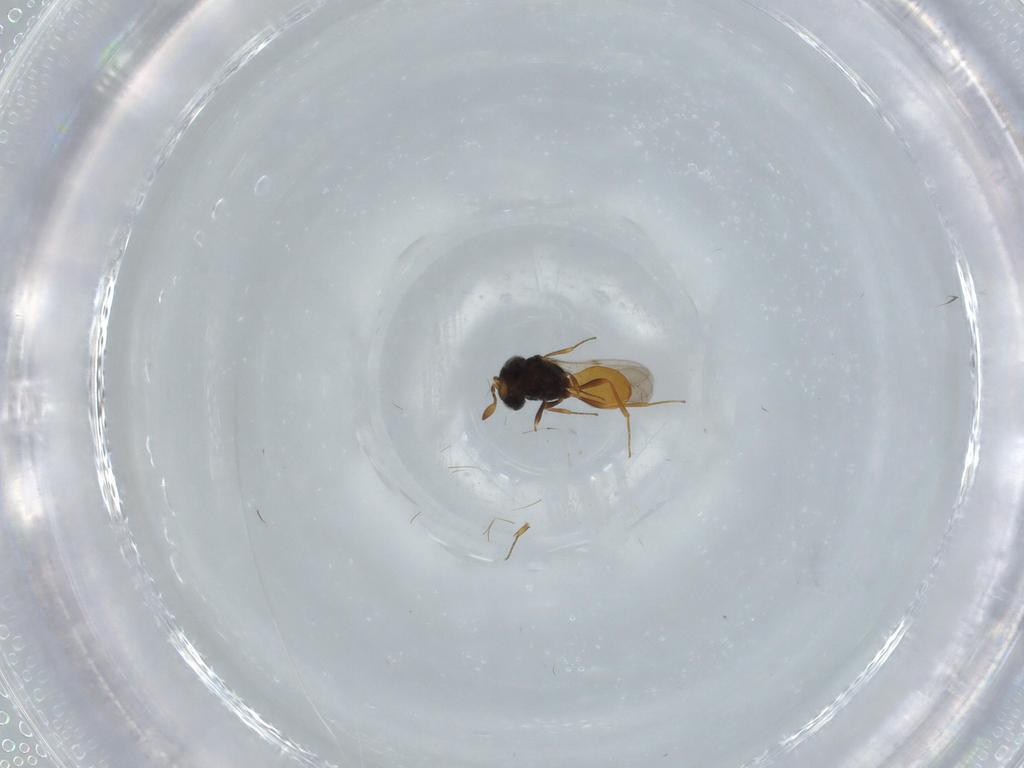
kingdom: Animalia
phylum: Arthropoda
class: Insecta
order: Hymenoptera
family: Scelionidae
